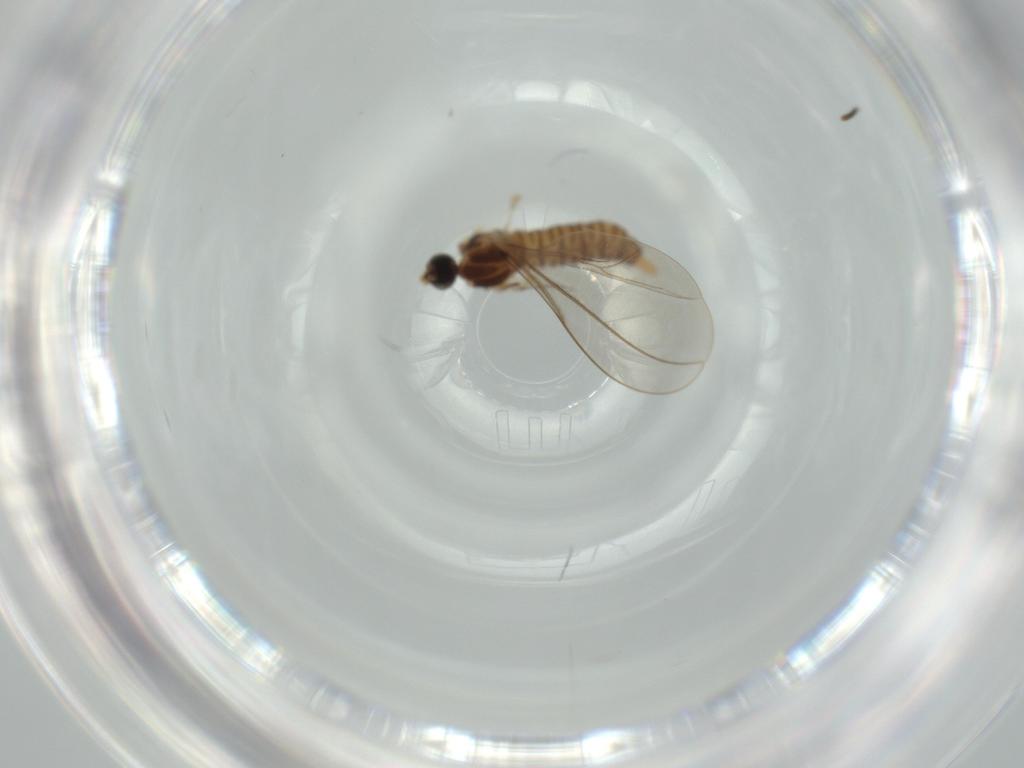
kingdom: Animalia
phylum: Arthropoda
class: Insecta
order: Diptera
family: Cecidomyiidae
